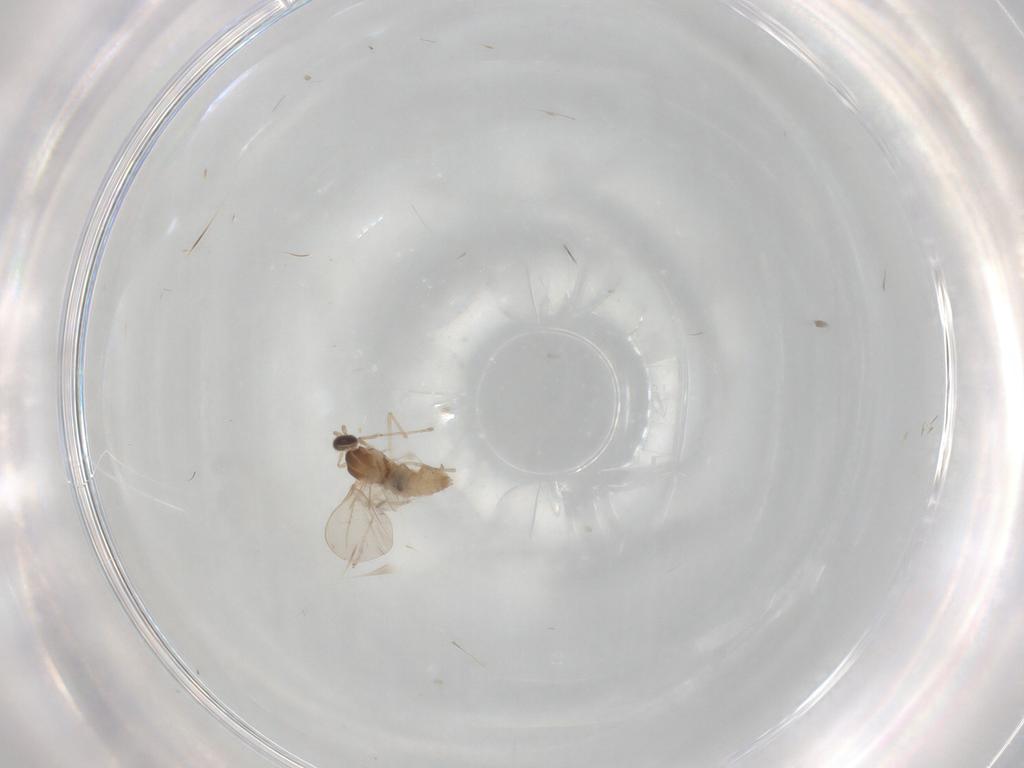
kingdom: Animalia
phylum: Arthropoda
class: Insecta
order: Diptera
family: Cecidomyiidae
